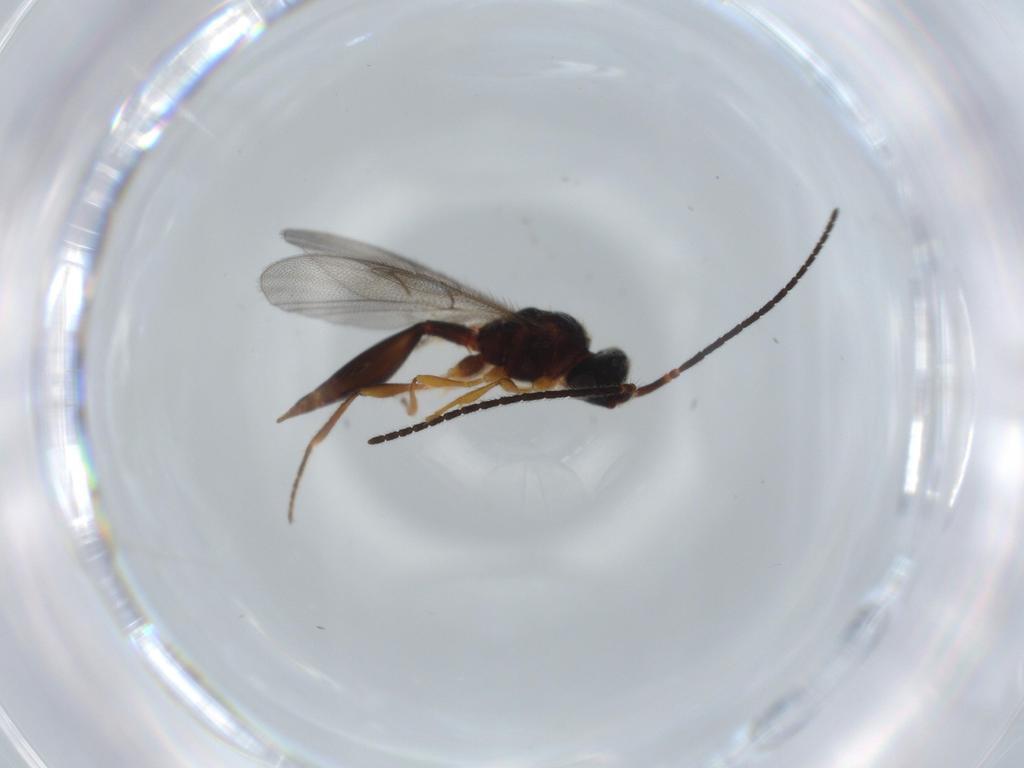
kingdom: Animalia
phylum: Arthropoda
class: Insecta
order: Hymenoptera
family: Diapriidae
